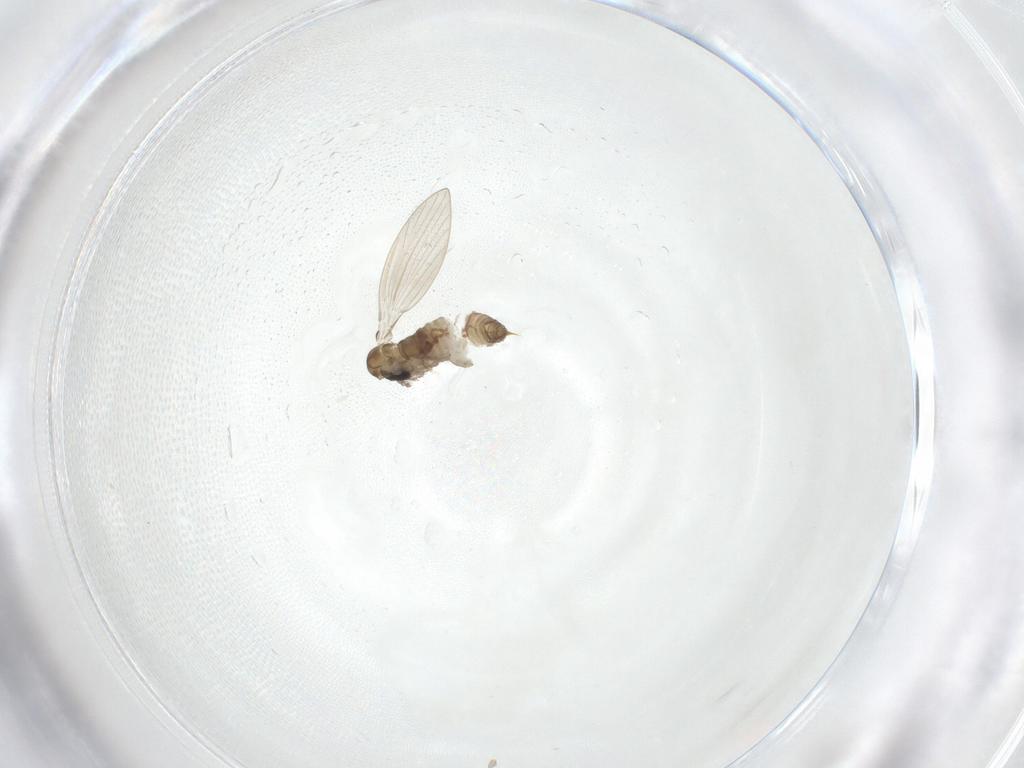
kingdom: Animalia
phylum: Arthropoda
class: Insecta
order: Diptera
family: Psychodidae
